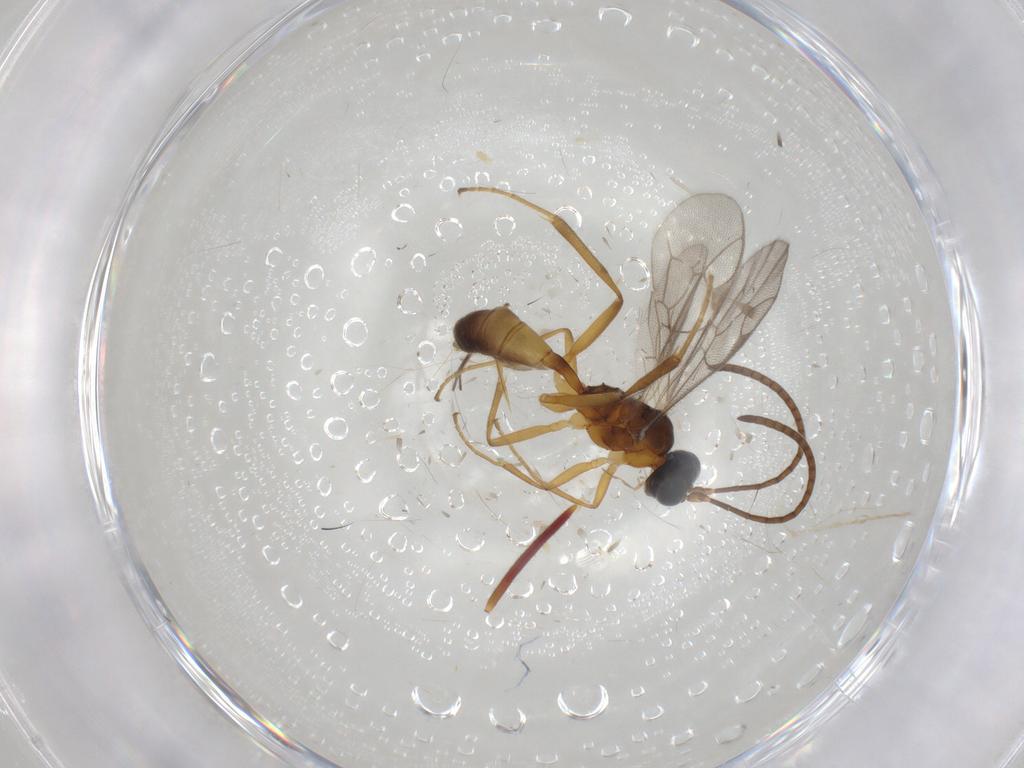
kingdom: Animalia
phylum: Arthropoda
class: Insecta
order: Hymenoptera
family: Ichneumonidae
